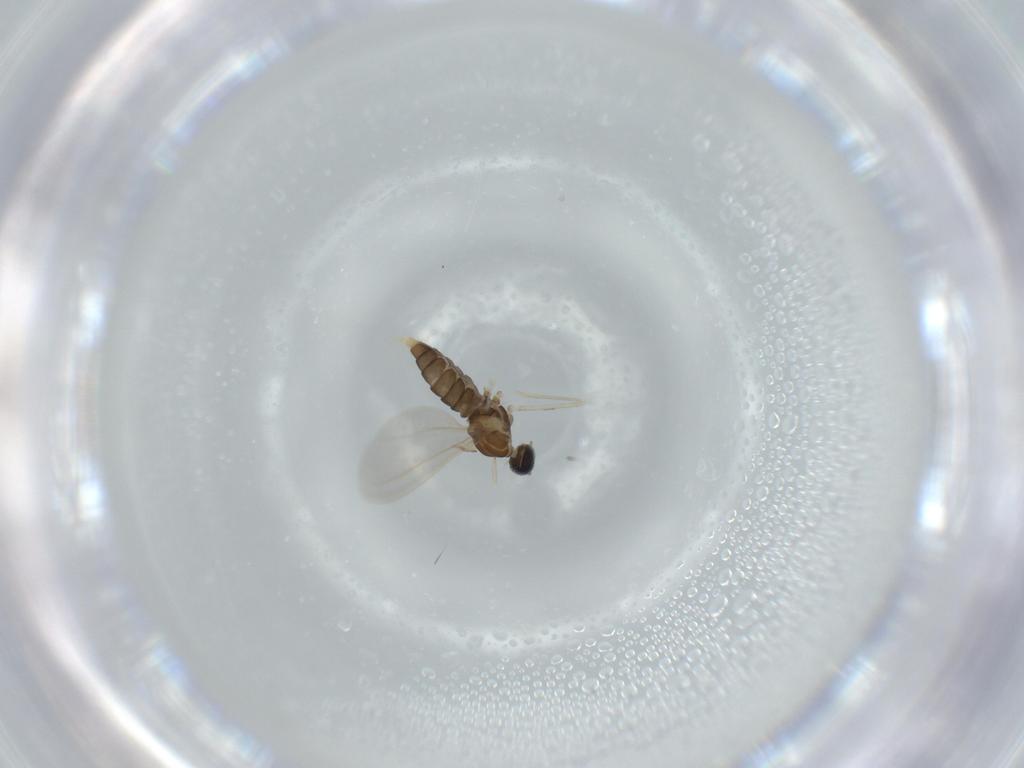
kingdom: Animalia
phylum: Arthropoda
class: Insecta
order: Diptera
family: Cecidomyiidae
